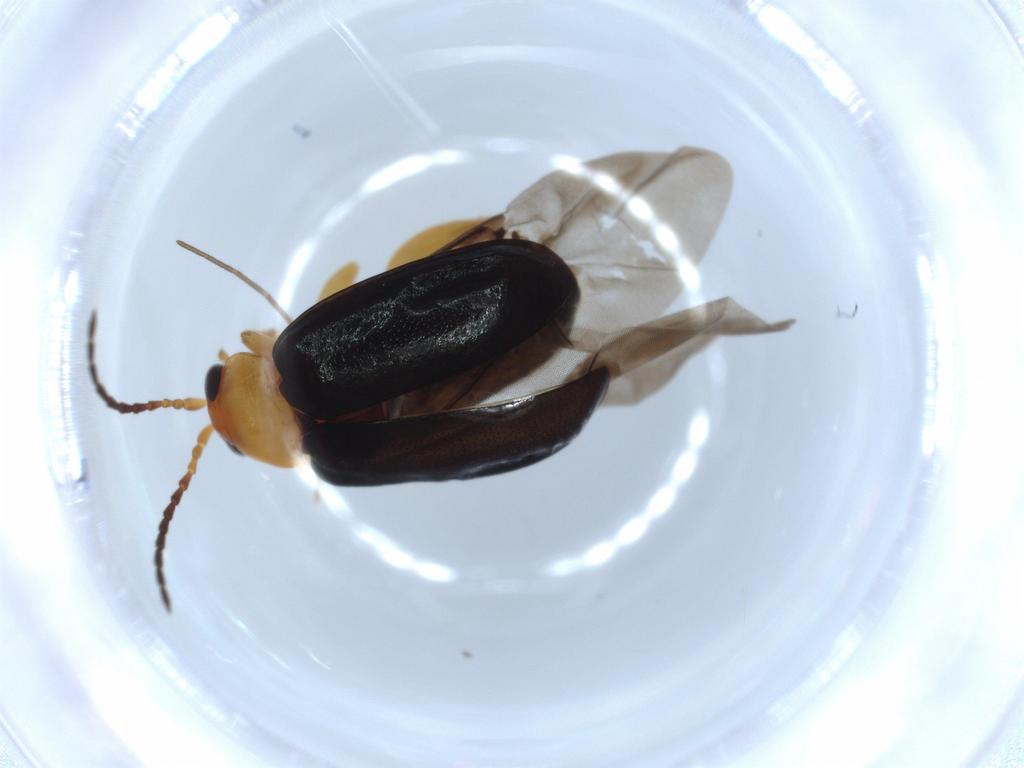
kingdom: Animalia
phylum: Arthropoda
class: Insecta
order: Coleoptera
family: Chrysomelidae
